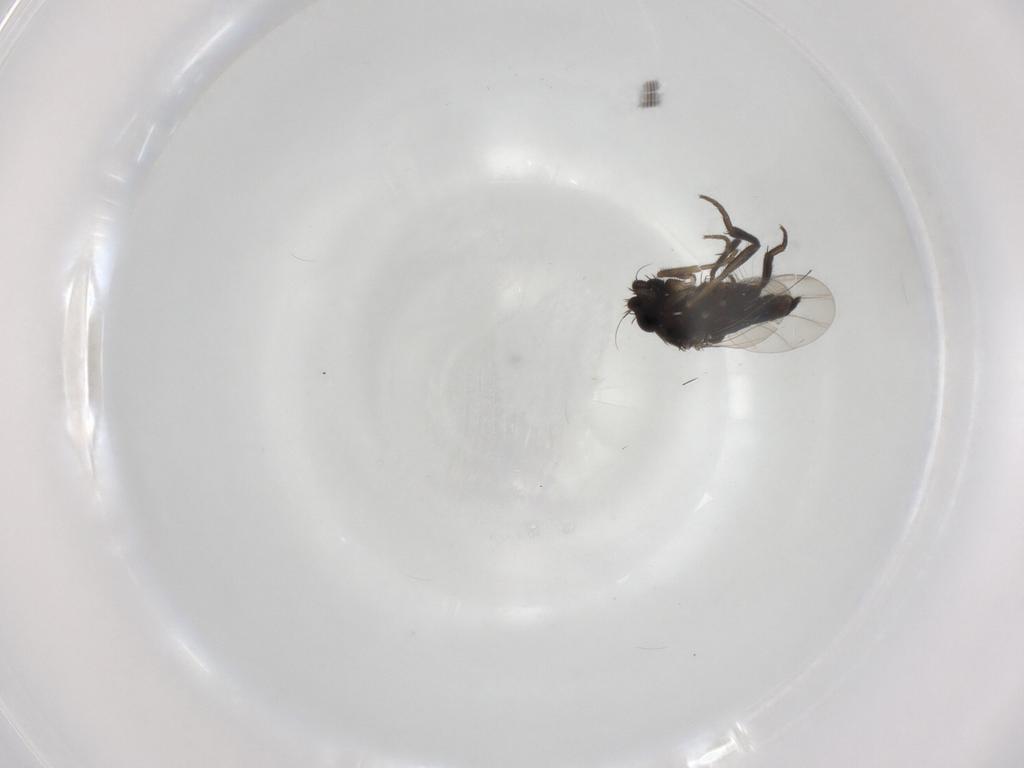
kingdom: Animalia
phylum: Arthropoda
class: Insecta
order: Diptera
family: Phoridae
